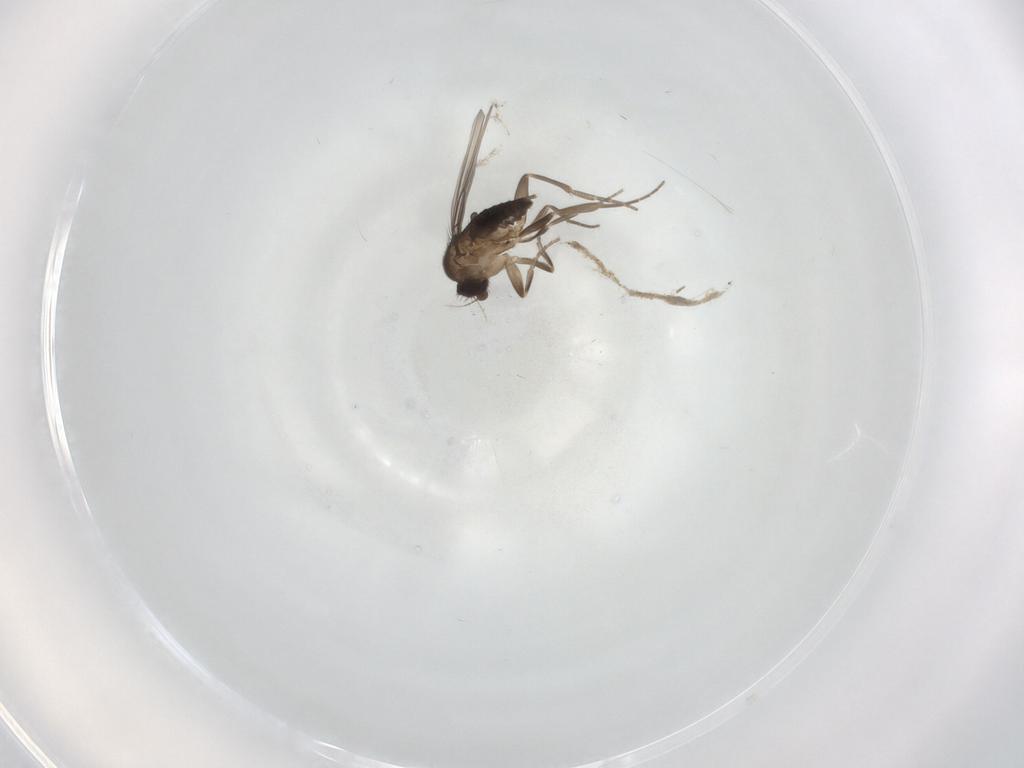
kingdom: Animalia
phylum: Arthropoda
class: Insecta
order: Diptera
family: Phoridae
